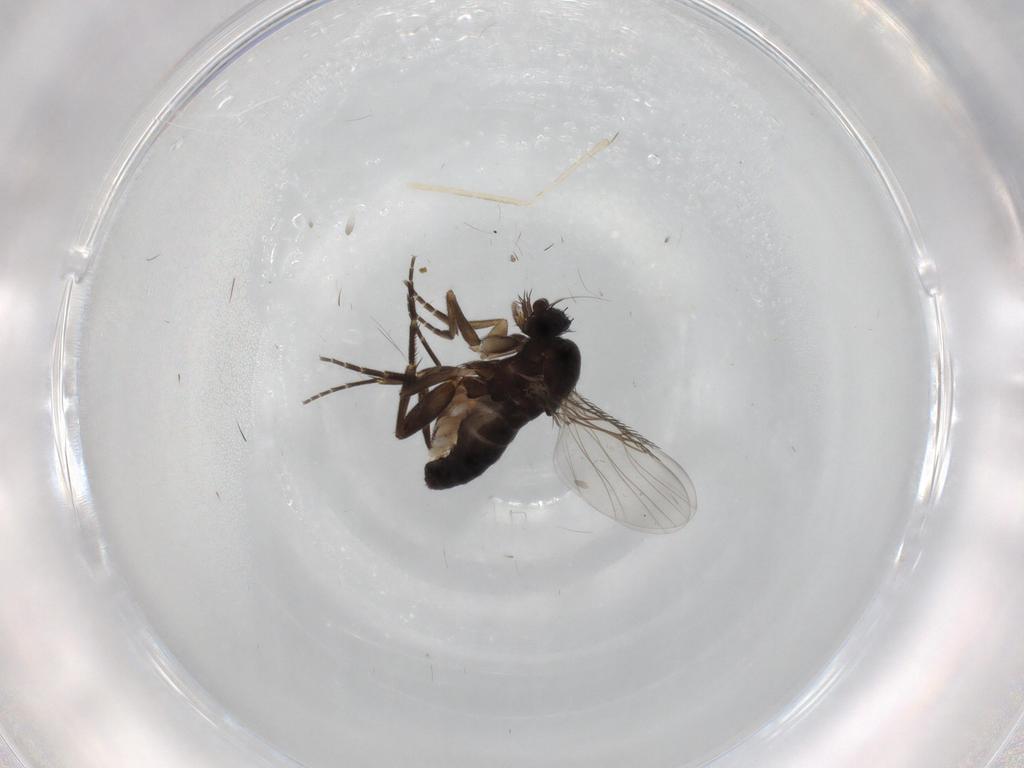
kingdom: Animalia
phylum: Arthropoda
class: Insecta
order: Diptera
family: Phoridae
